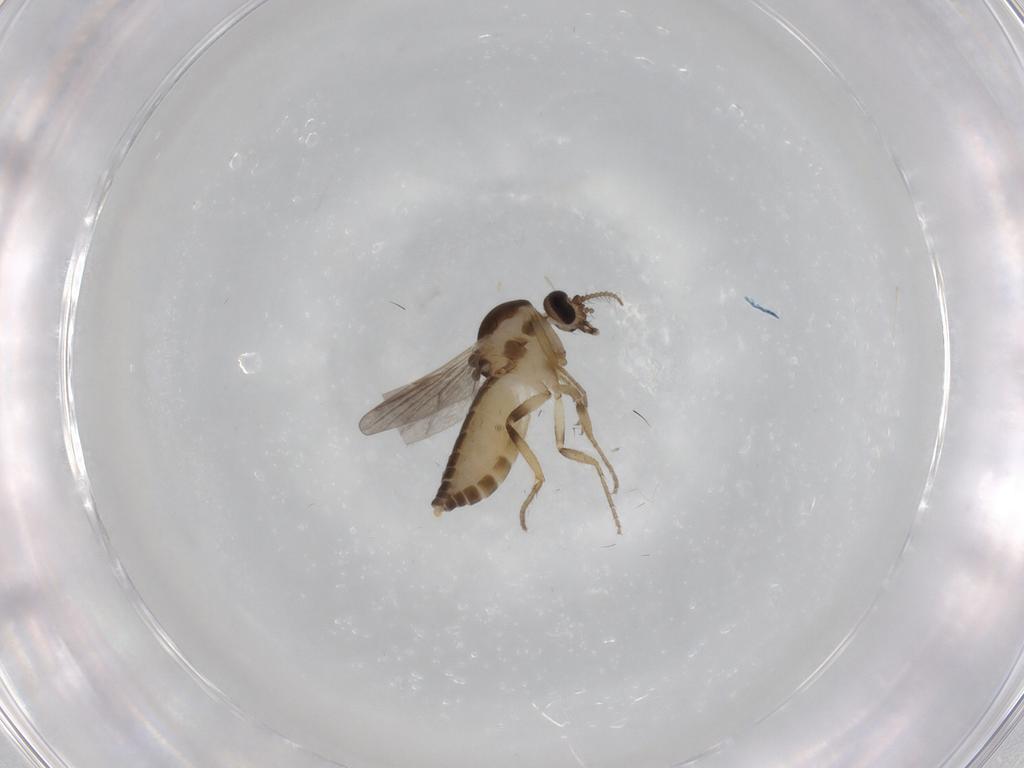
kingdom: Animalia
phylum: Arthropoda
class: Insecta
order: Diptera
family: Ceratopogonidae
